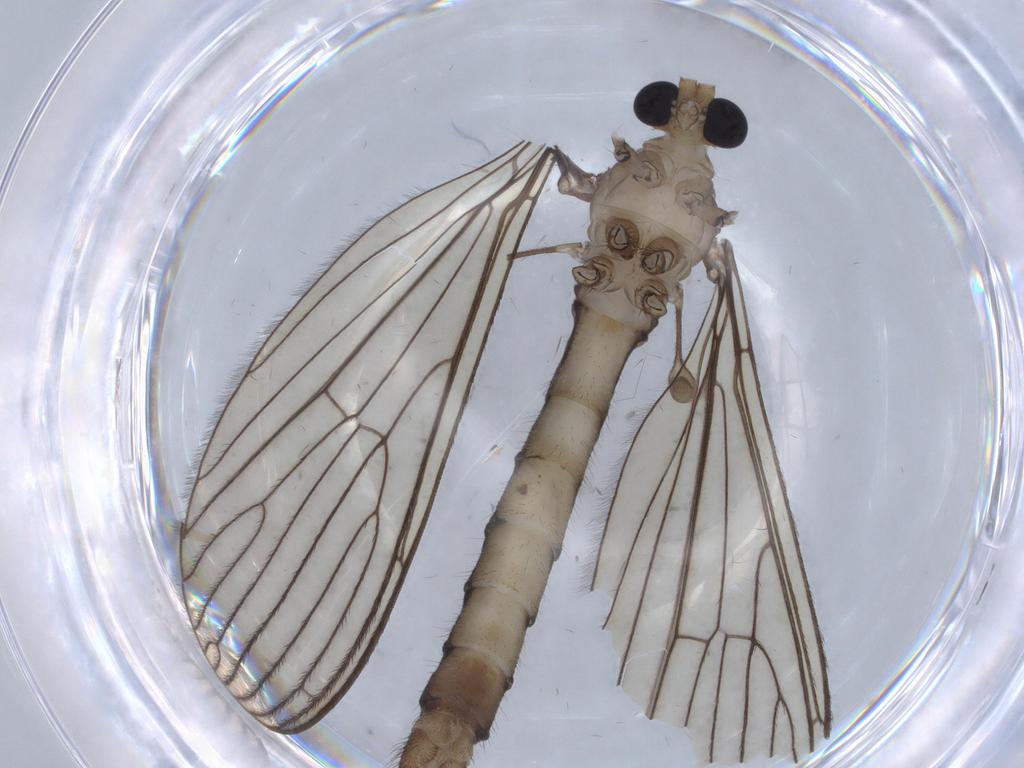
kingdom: Animalia
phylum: Arthropoda
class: Insecta
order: Diptera
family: Limoniidae
